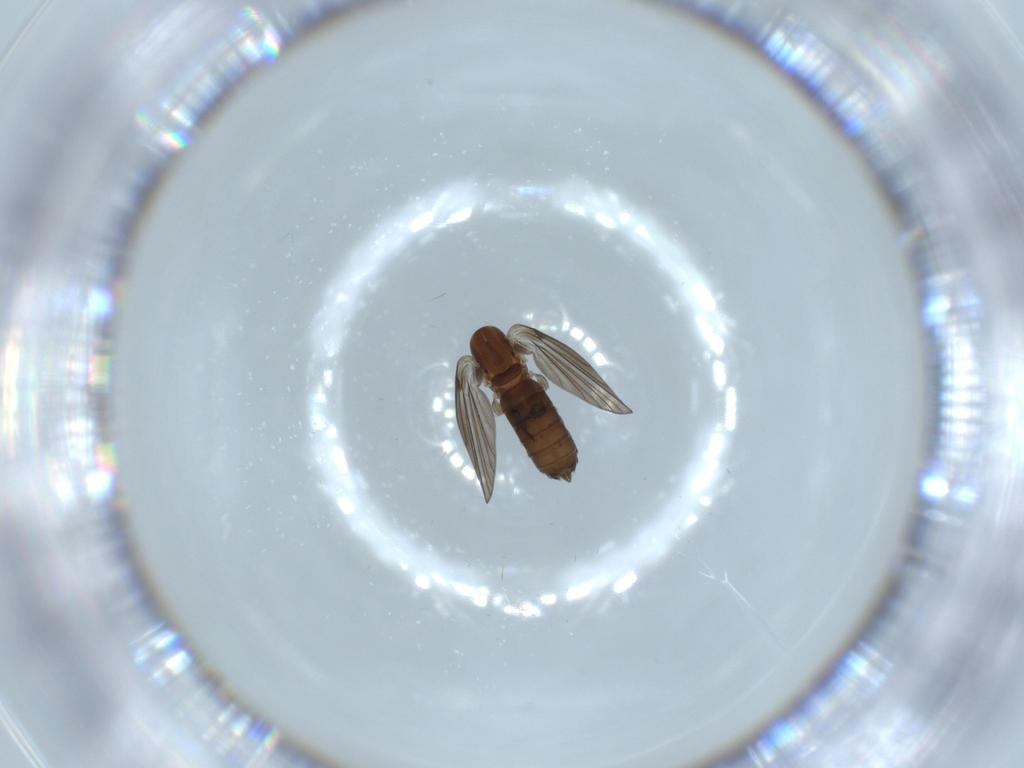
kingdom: Animalia
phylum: Arthropoda
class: Insecta
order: Diptera
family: Psychodidae
